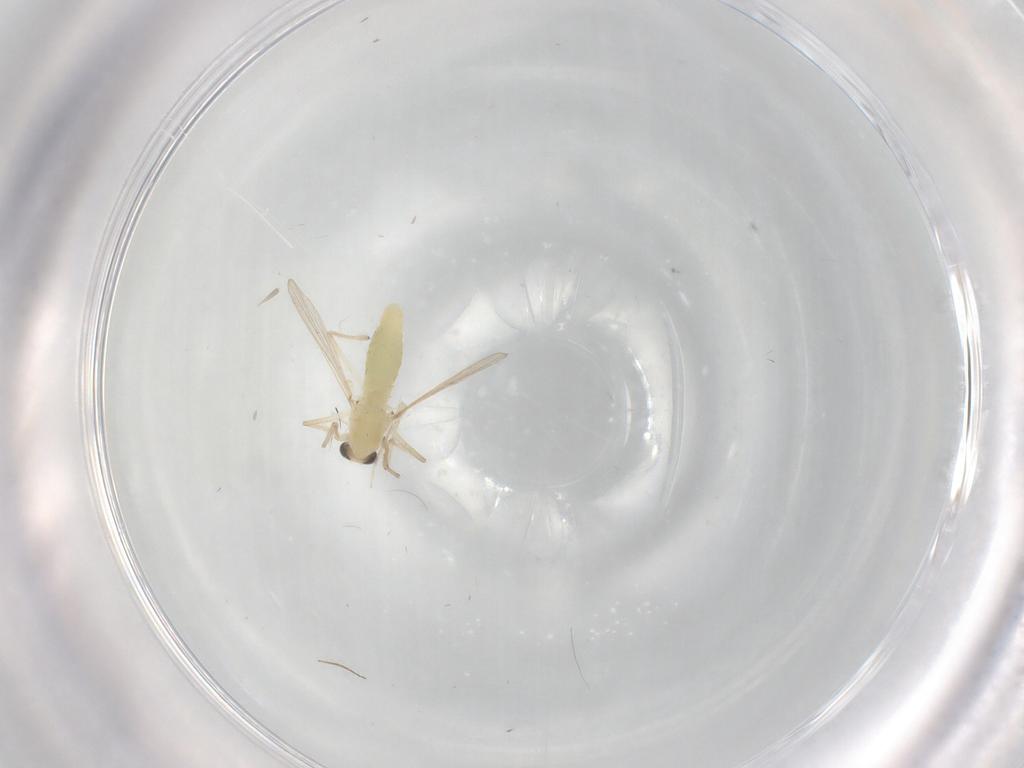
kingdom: Animalia
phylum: Arthropoda
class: Insecta
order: Diptera
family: Chironomidae
